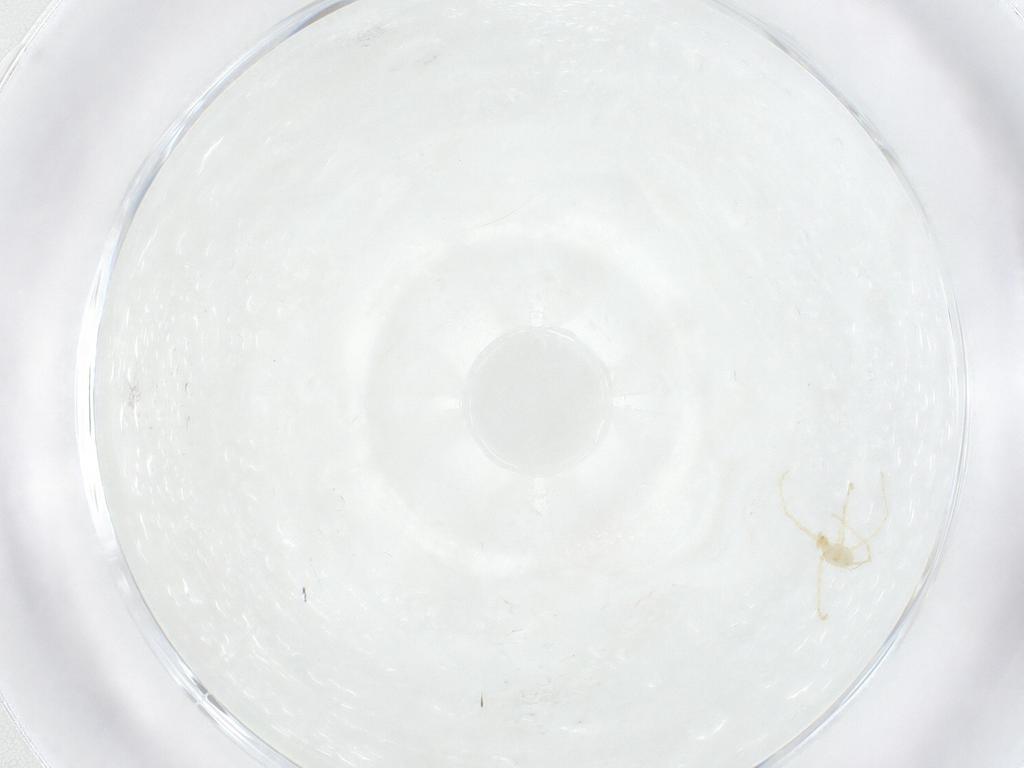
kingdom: Animalia
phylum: Arthropoda
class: Arachnida
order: Trombidiformes
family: Erythraeidae
